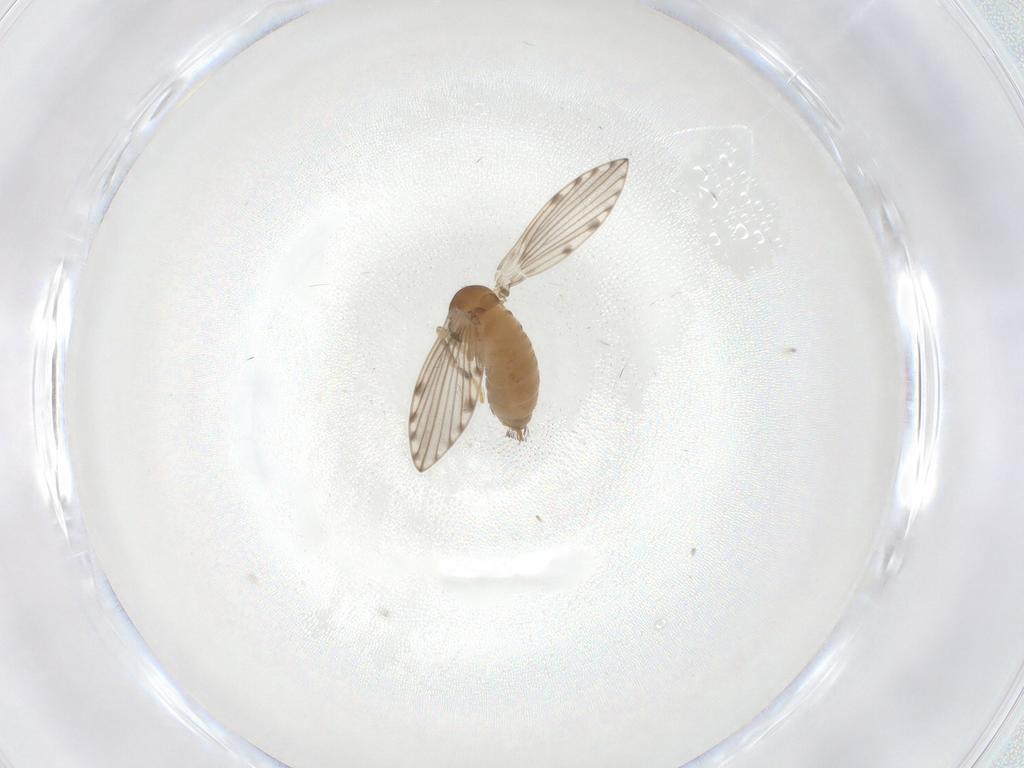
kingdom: Animalia
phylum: Arthropoda
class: Insecta
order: Diptera
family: Psychodidae
